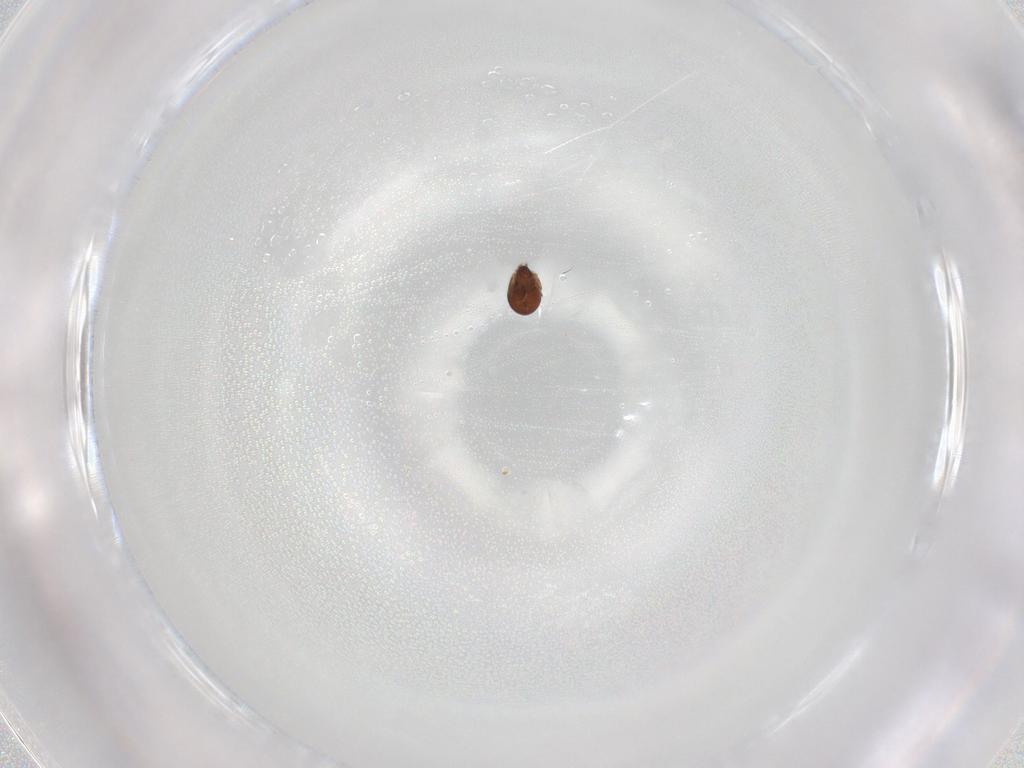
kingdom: Animalia
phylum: Arthropoda
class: Arachnida
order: Sarcoptiformes
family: Tegoribatidae
